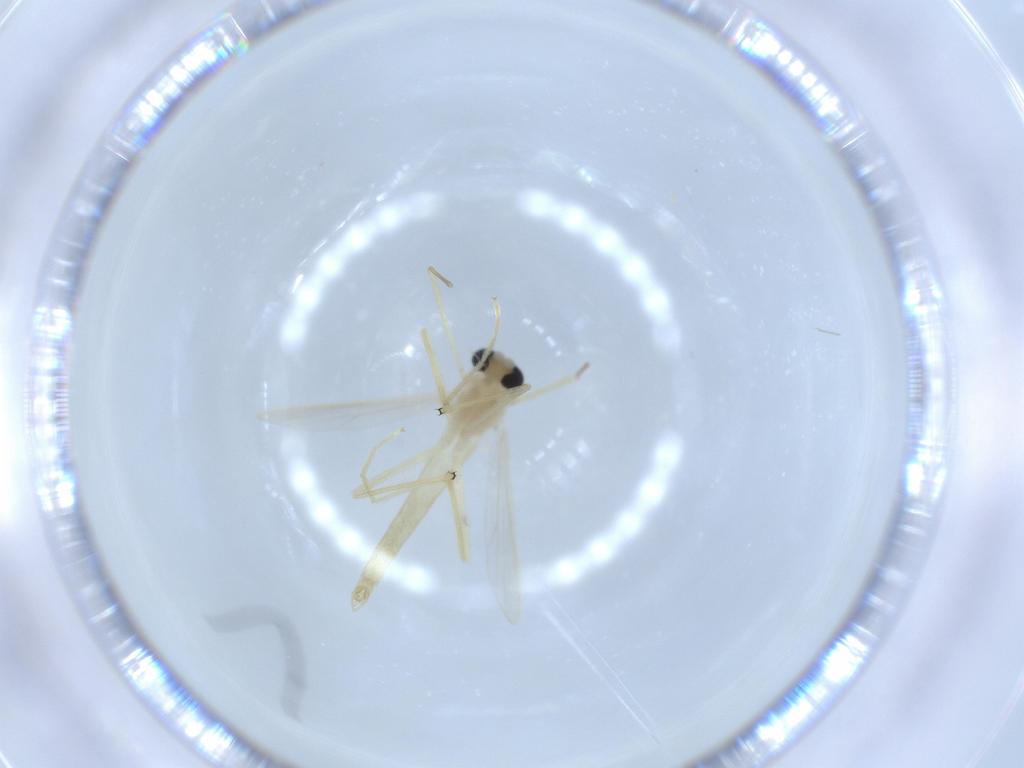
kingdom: Animalia
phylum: Arthropoda
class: Insecta
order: Diptera
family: Chironomidae
